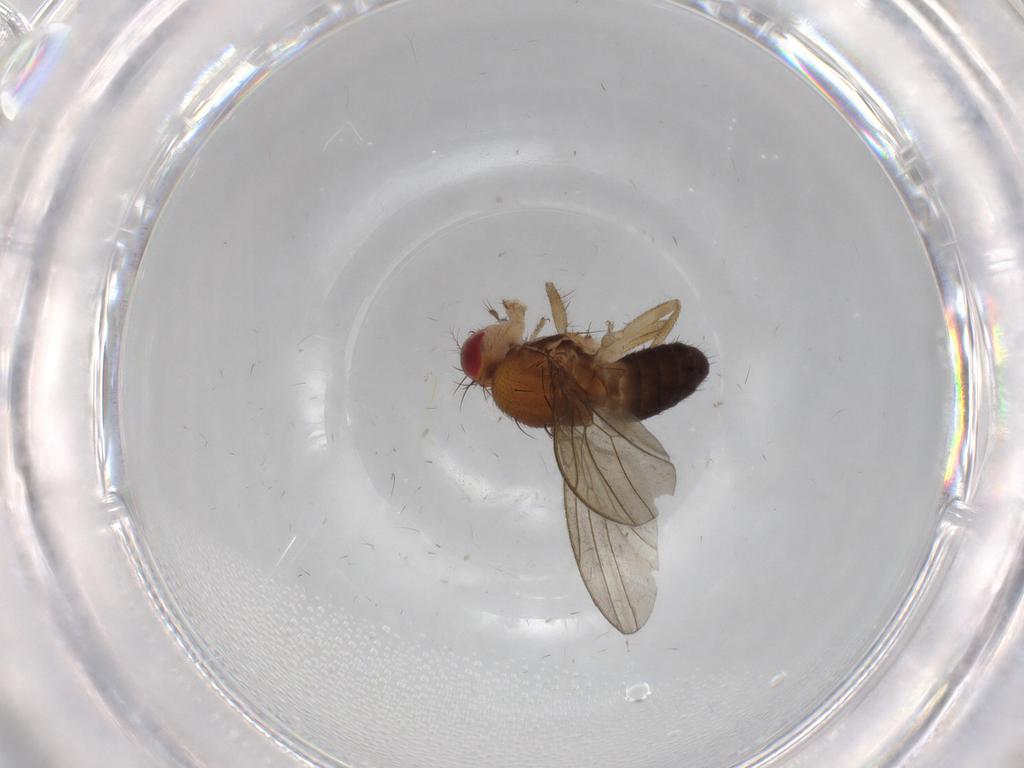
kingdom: Animalia
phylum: Arthropoda
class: Insecta
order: Diptera
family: Drosophilidae
